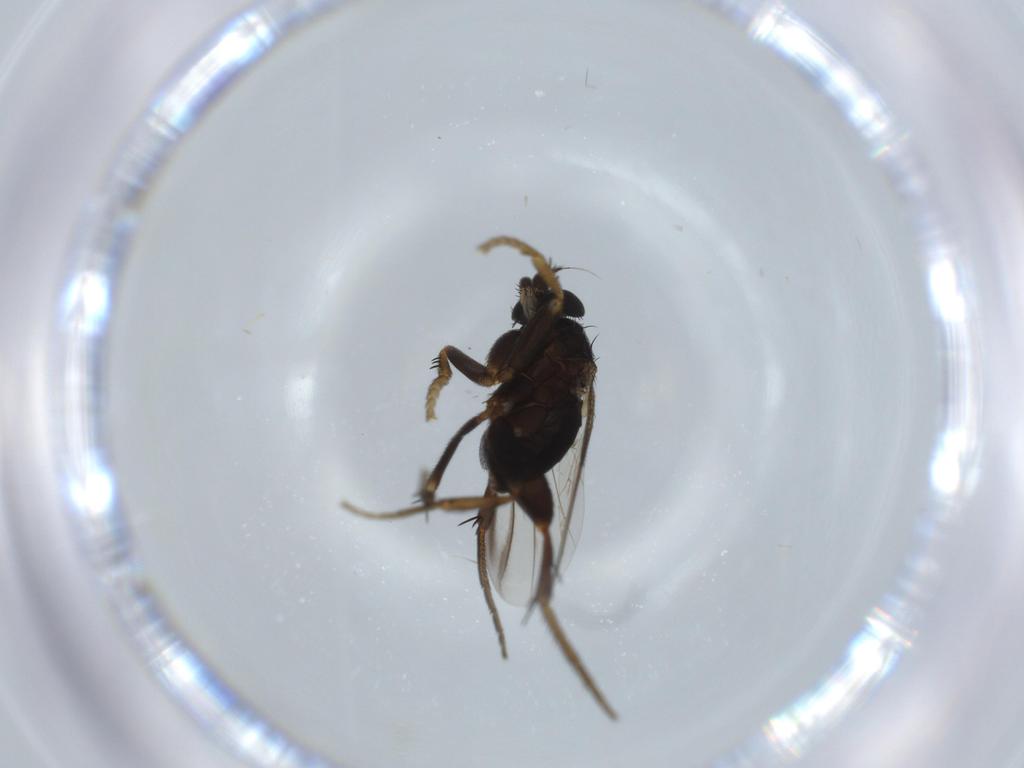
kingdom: Animalia
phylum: Arthropoda
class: Insecta
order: Diptera
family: Phoridae
